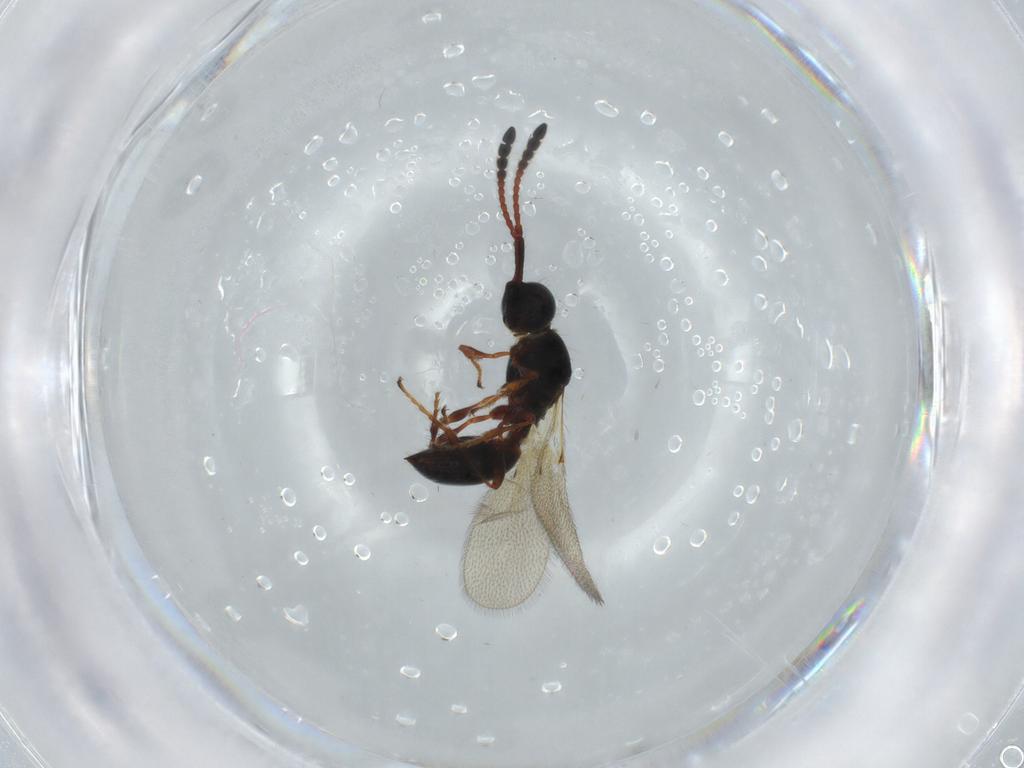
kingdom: Animalia
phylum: Arthropoda
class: Insecta
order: Hymenoptera
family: Diapriidae
